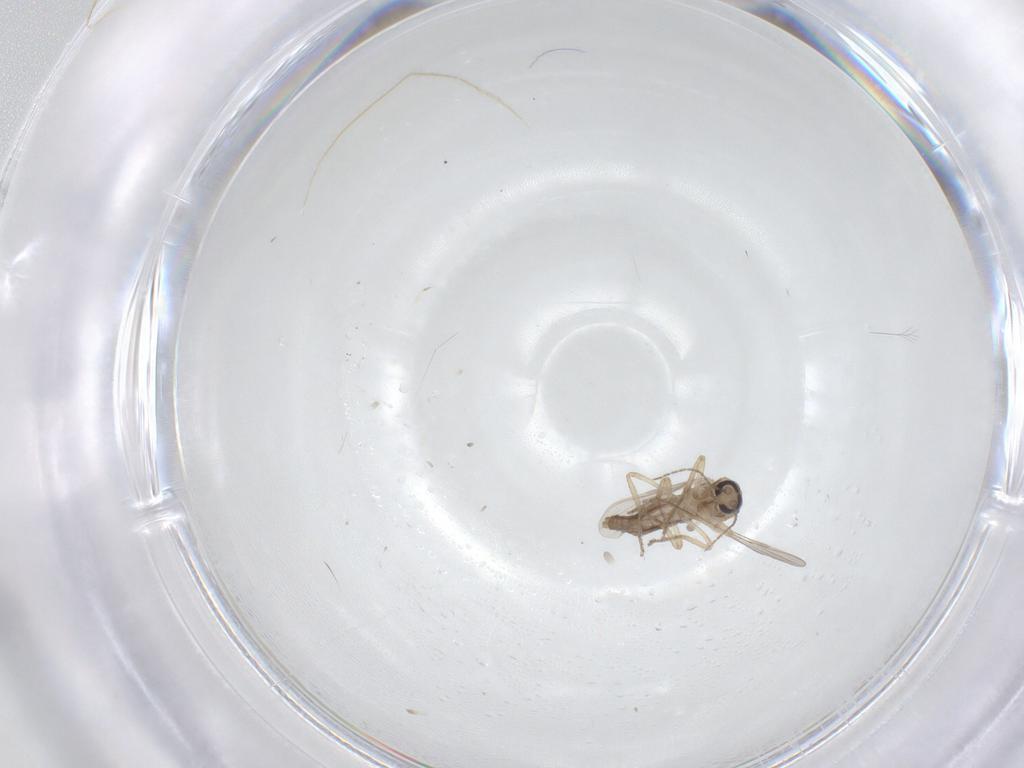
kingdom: Animalia
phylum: Arthropoda
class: Insecta
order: Diptera
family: Ceratopogonidae
